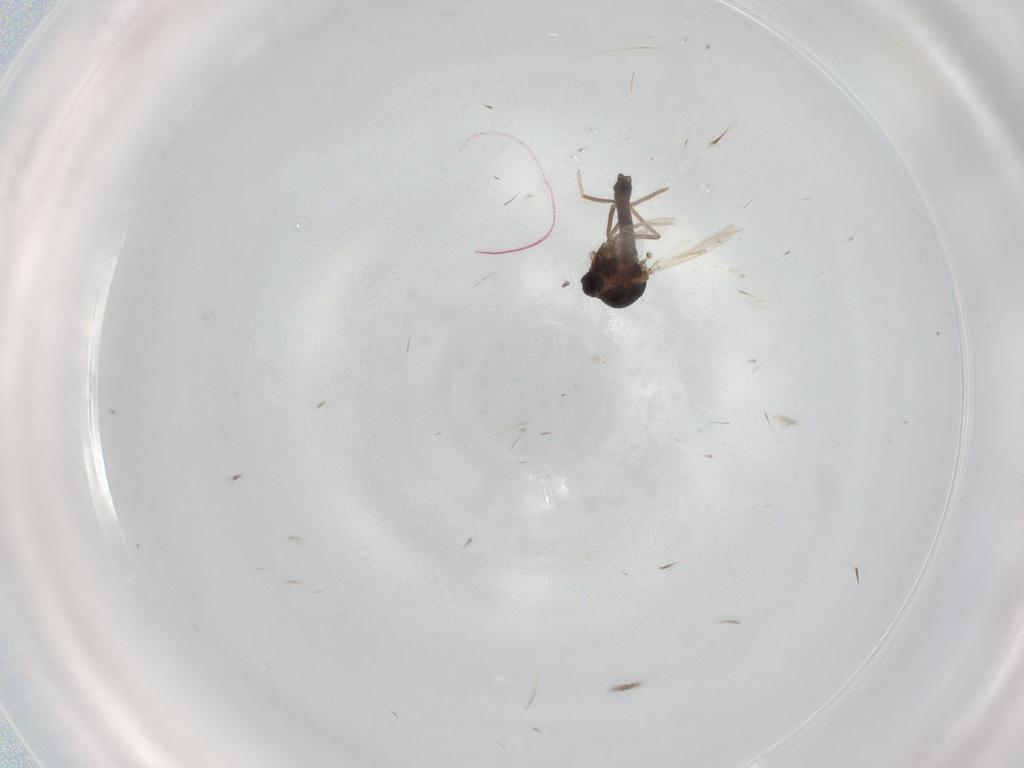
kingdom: Animalia
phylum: Arthropoda
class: Insecta
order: Diptera
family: Ceratopogonidae
